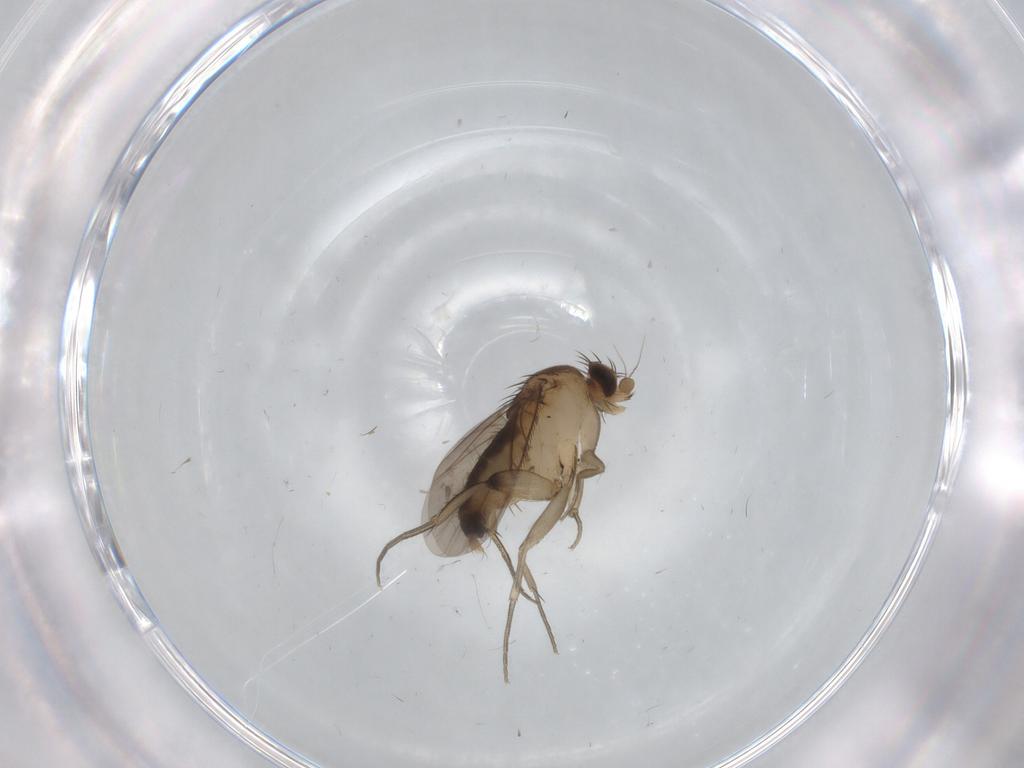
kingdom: Animalia
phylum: Arthropoda
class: Insecta
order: Diptera
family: Phoridae
